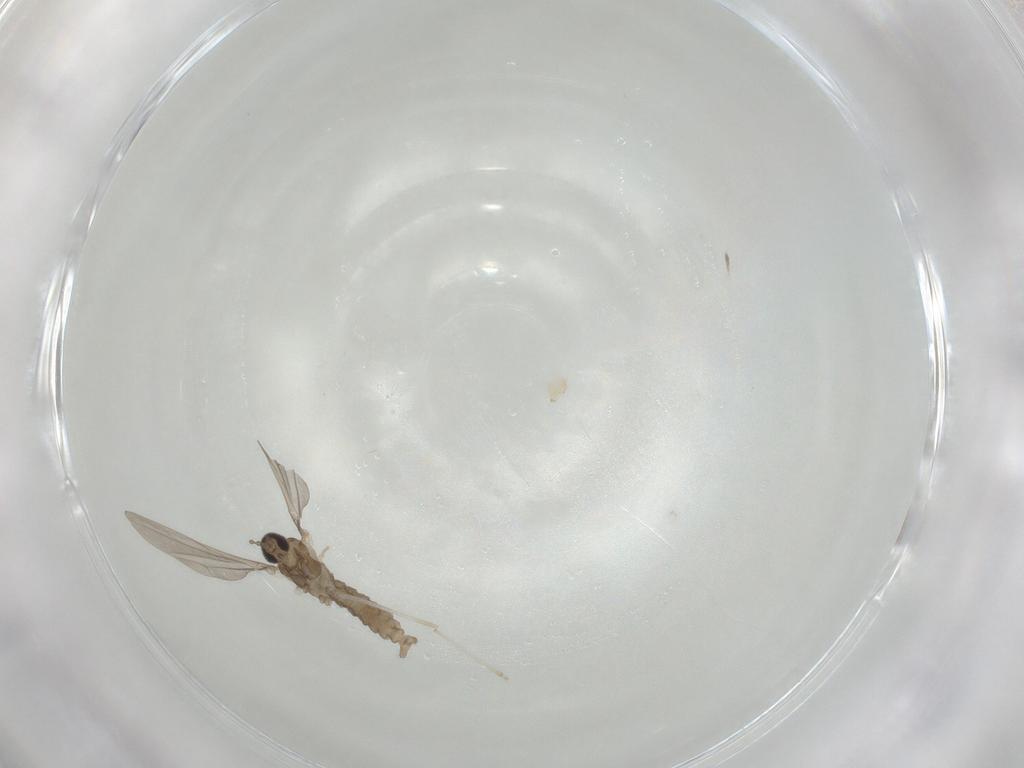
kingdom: Animalia
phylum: Arthropoda
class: Insecta
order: Diptera
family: Cecidomyiidae
